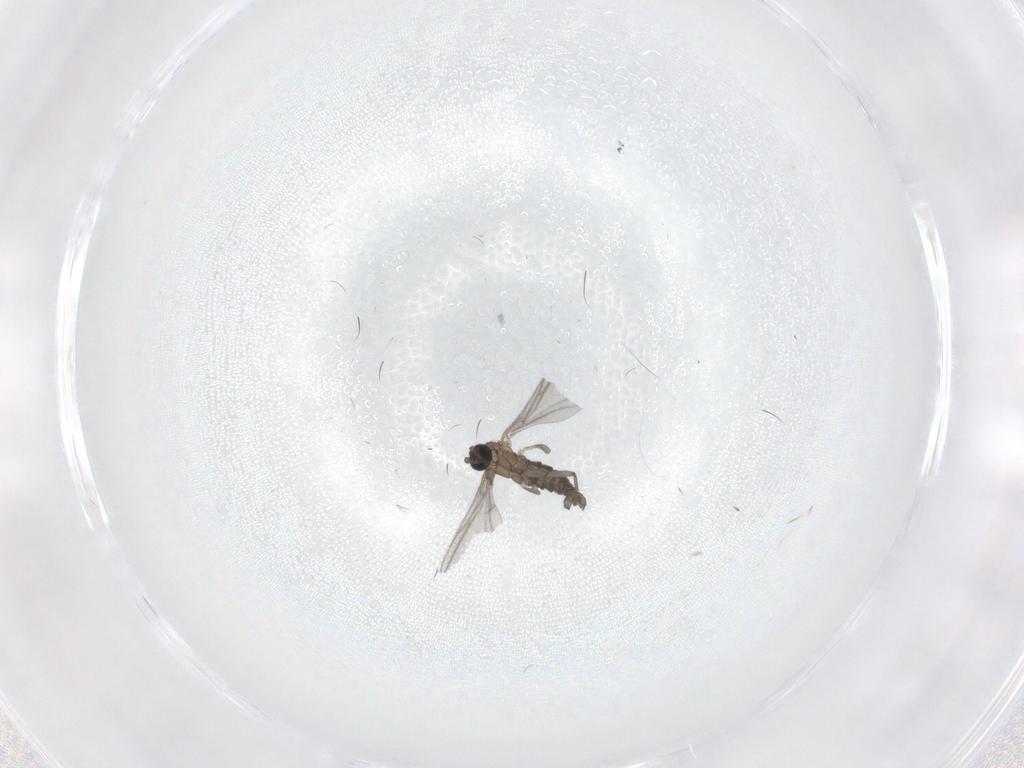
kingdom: Animalia
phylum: Arthropoda
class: Insecta
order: Diptera
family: Sciaridae
